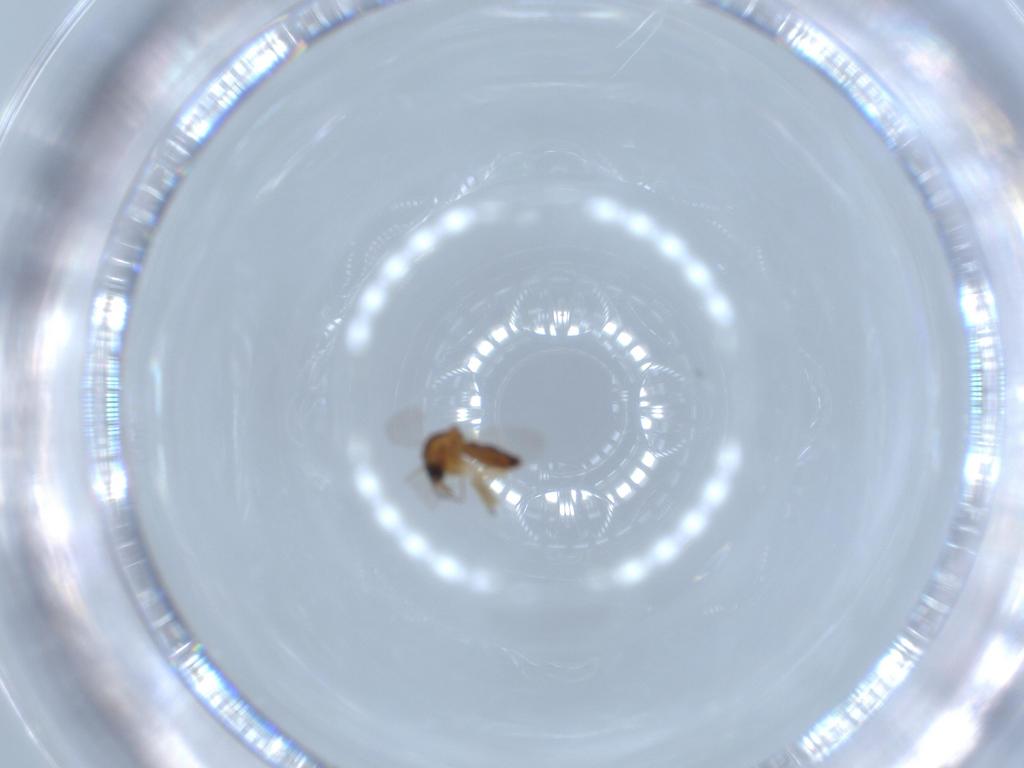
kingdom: Animalia
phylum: Arthropoda
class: Insecta
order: Diptera
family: Ceratopogonidae
